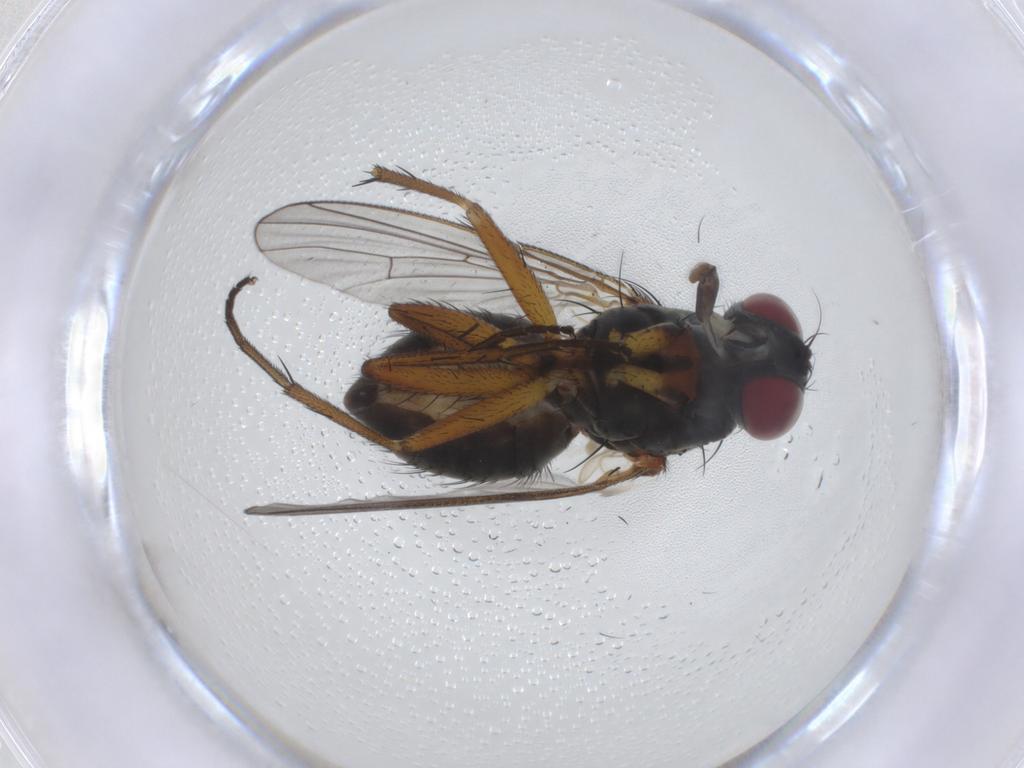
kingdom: Animalia
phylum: Arthropoda
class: Insecta
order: Diptera
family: Muscidae
